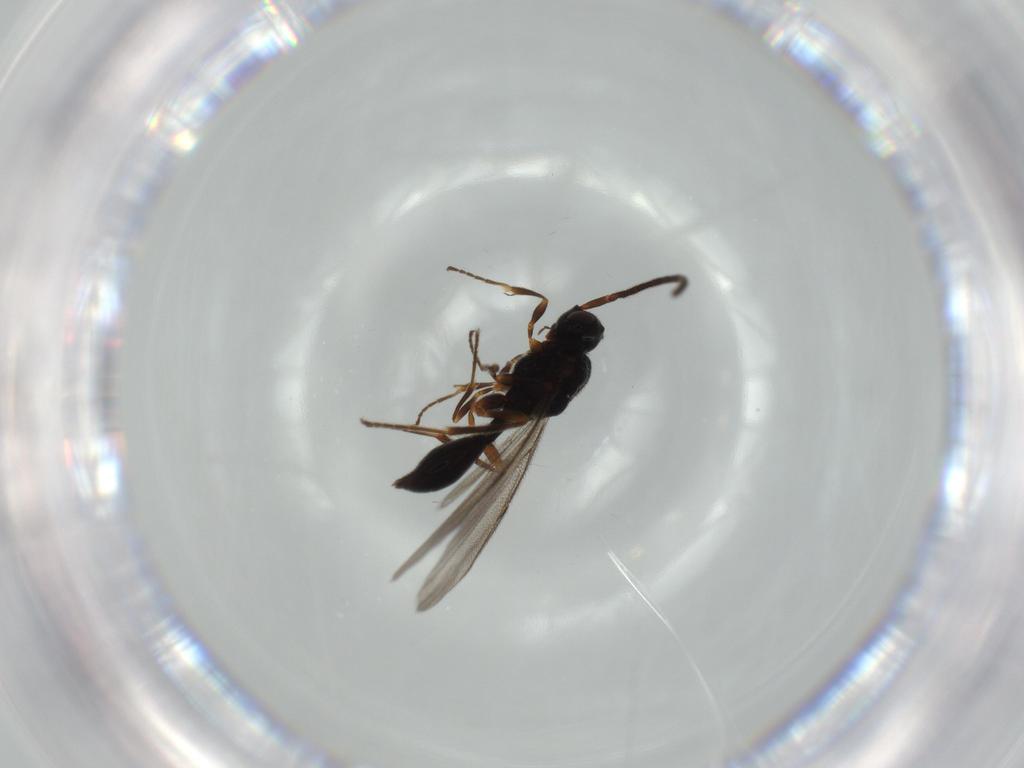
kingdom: Animalia
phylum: Arthropoda
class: Insecta
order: Hymenoptera
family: Diapriidae
